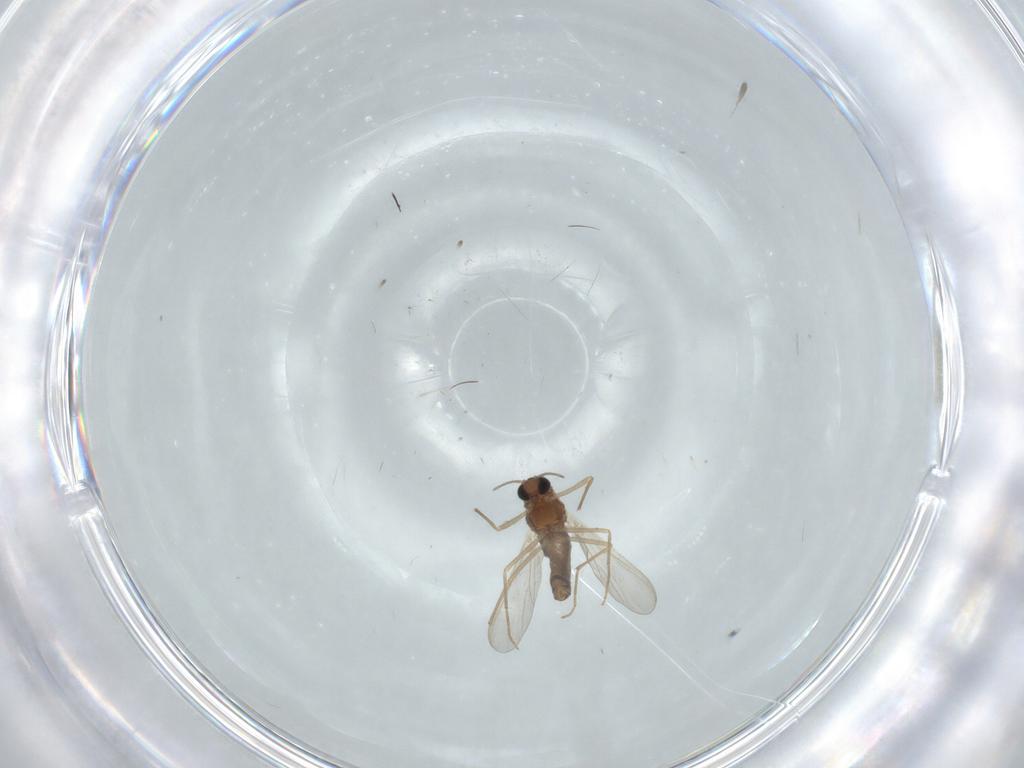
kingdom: Animalia
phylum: Arthropoda
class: Insecta
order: Diptera
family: Chironomidae
